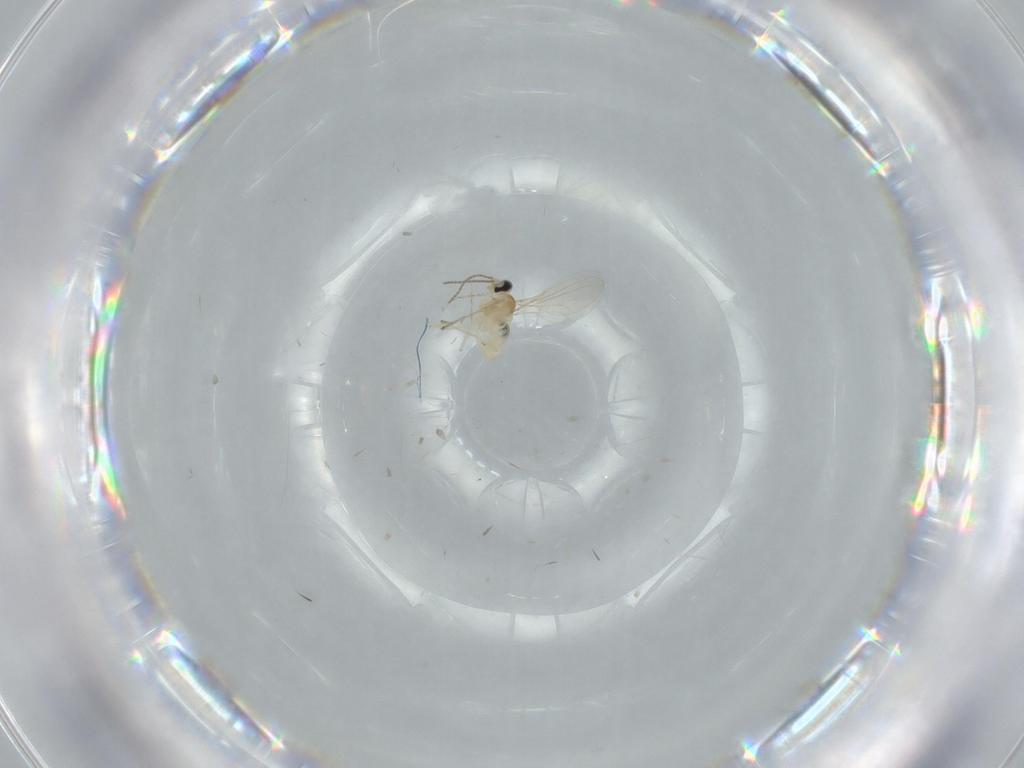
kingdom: Animalia
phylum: Arthropoda
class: Insecta
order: Diptera
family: Cecidomyiidae
